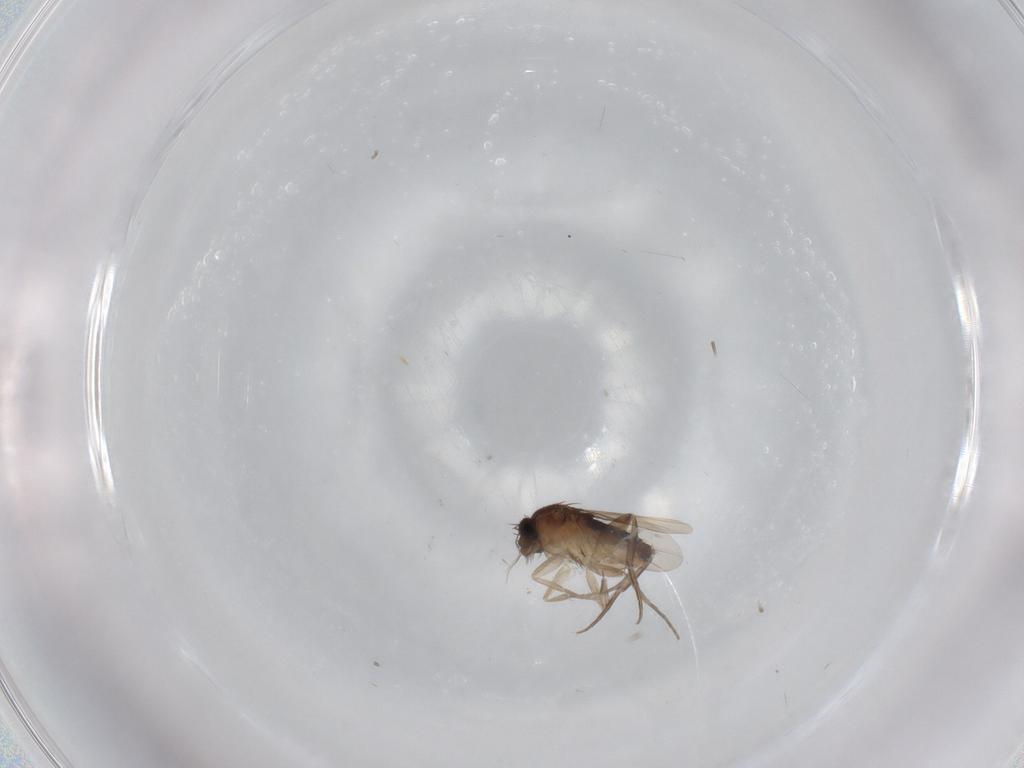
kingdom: Animalia
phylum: Arthropoda
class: Insecta
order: Diptera
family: Phoridae
